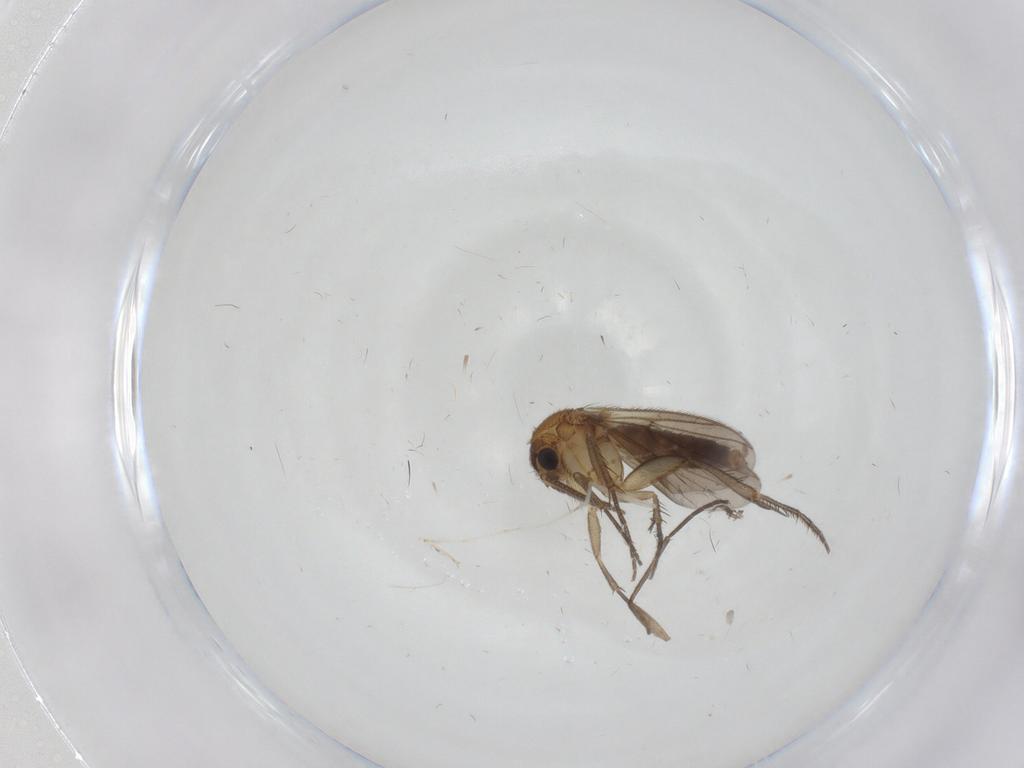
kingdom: Animalia
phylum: Arthropoda
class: Insecta
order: Diptera
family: Mycetophilidae
